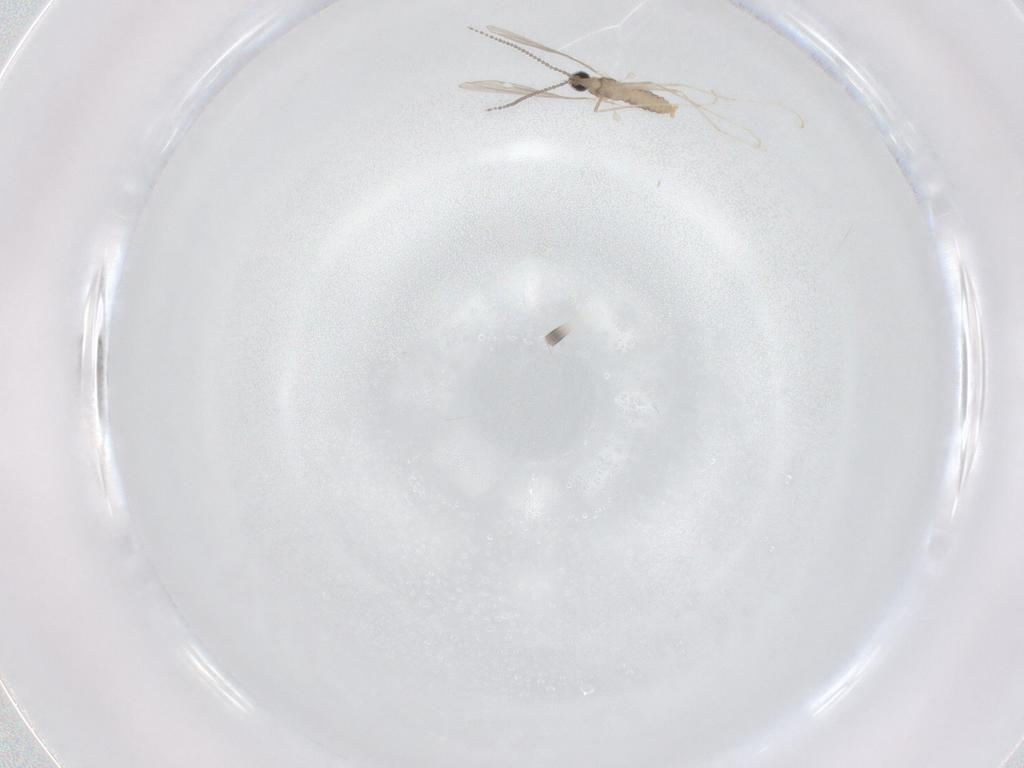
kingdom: Animalia
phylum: Arthropoda
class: Insecta
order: Diptera
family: Cecidomyiidae
